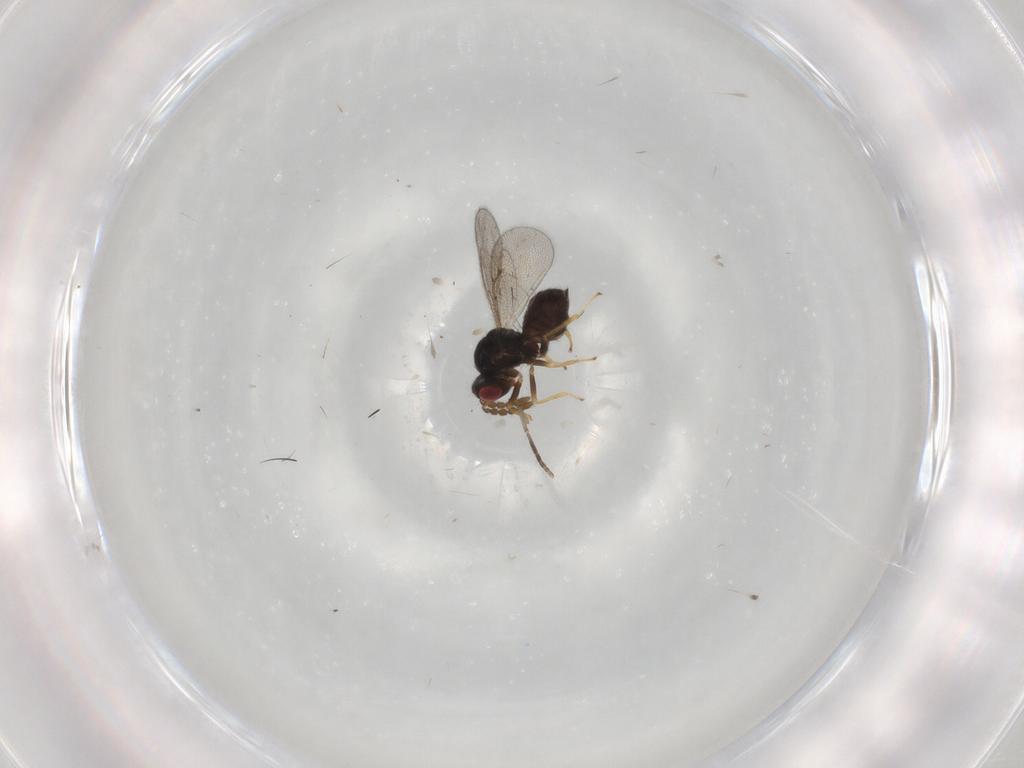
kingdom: Animalia
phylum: Arthropoda
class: Insecta
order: Hymenoptera
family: Eulophidae
